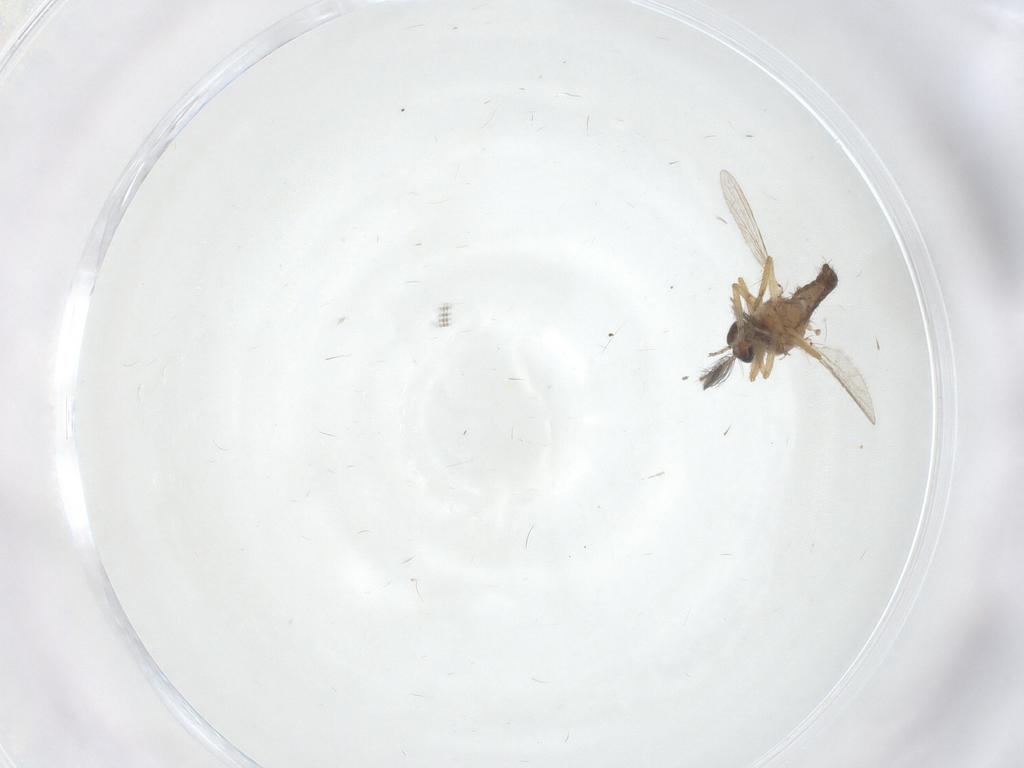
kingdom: Animalia
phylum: Arthropoda
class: Insecta
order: Diptera
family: Ceratopogonidae
